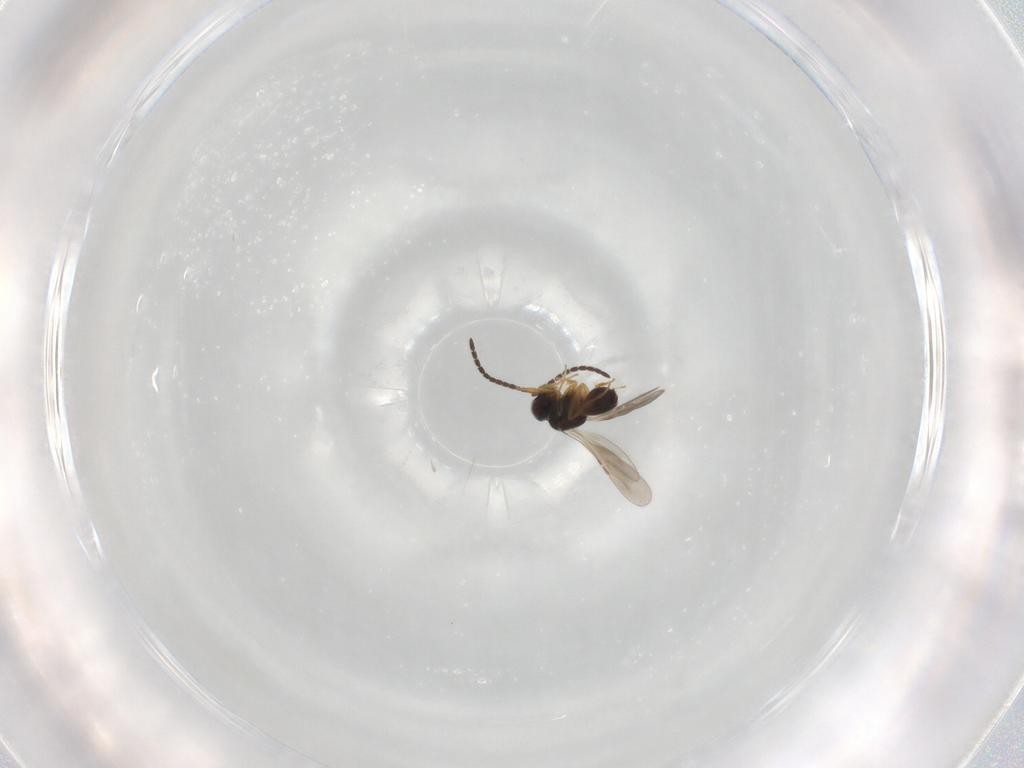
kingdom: Animalia
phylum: Arthropoda
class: Insecta
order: Hymenoptera
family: Ceraphronidae
